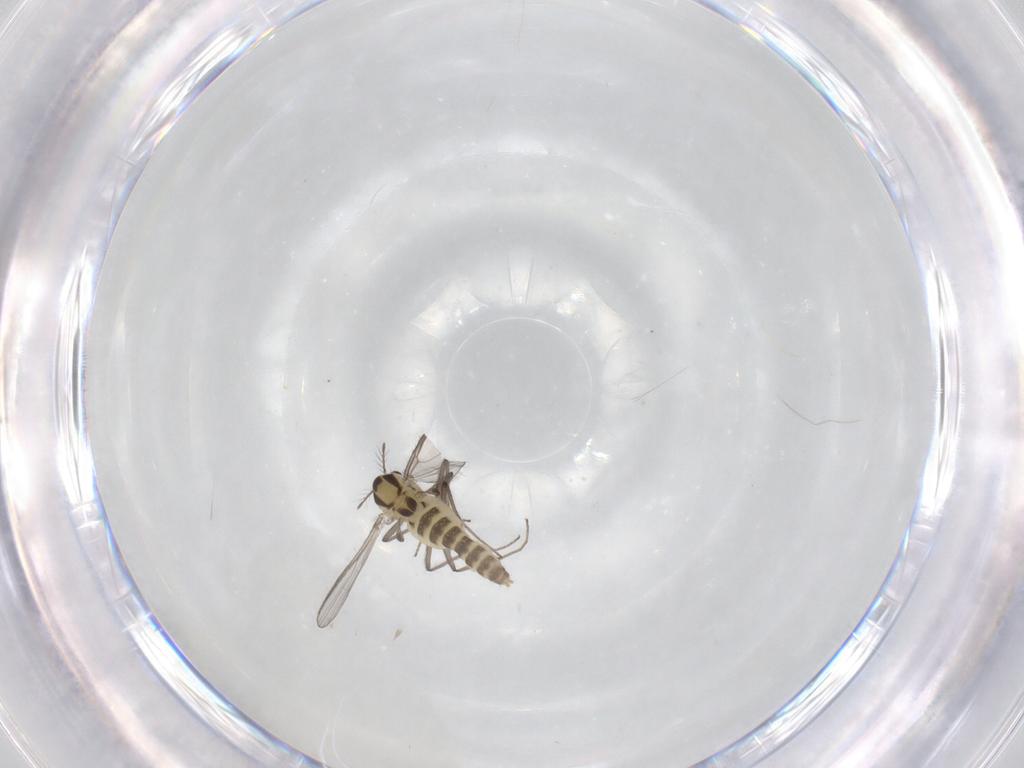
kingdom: Animalia
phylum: Arthropoda
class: Insecta
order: Diptera
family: Chironomidae
